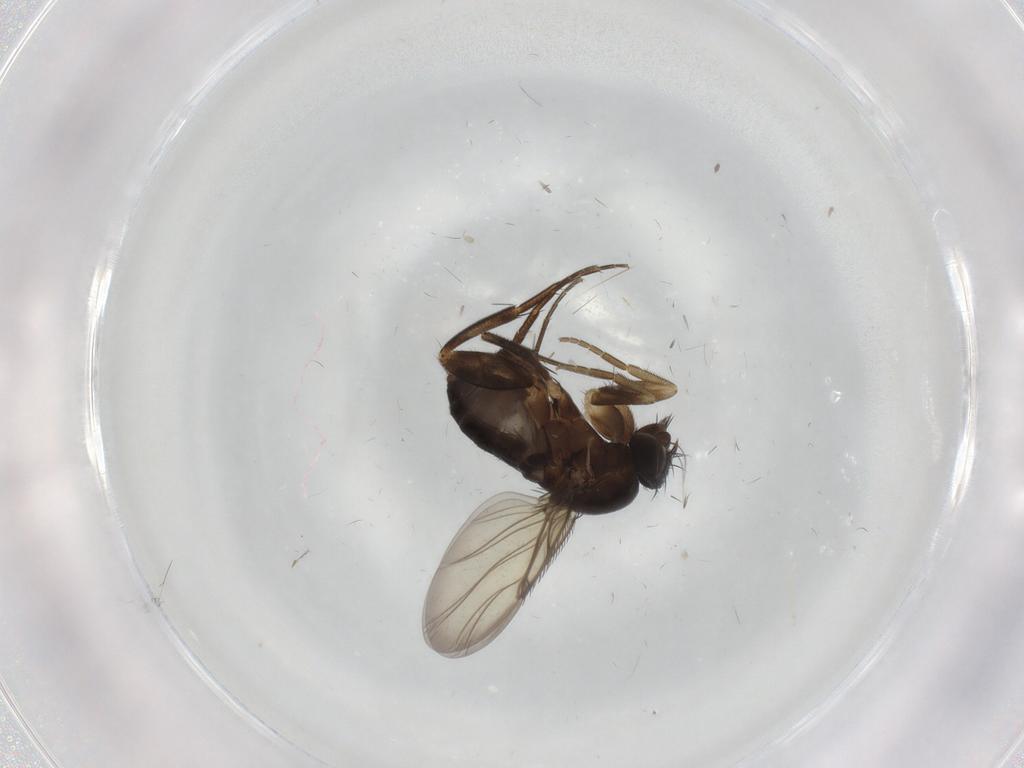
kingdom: Animalia
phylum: Arthropoda
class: Insecta
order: Diptera
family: Phoridae
